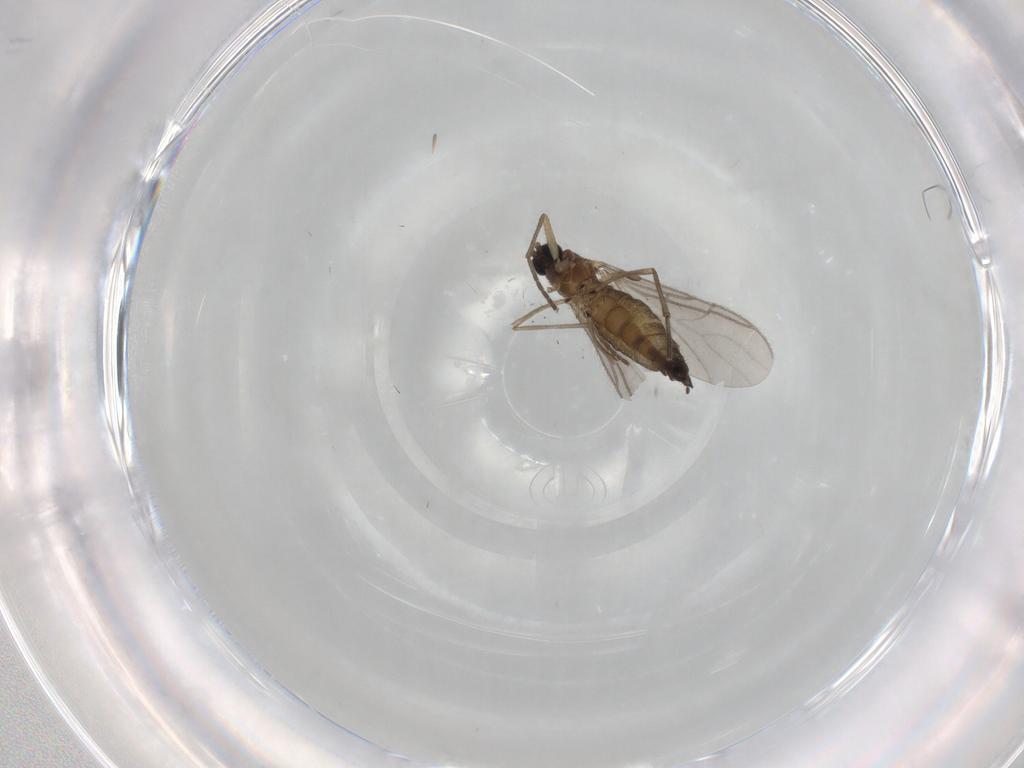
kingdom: Animalia
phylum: Arthropoda
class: Insecta
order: Diptera
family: Sciaridae
